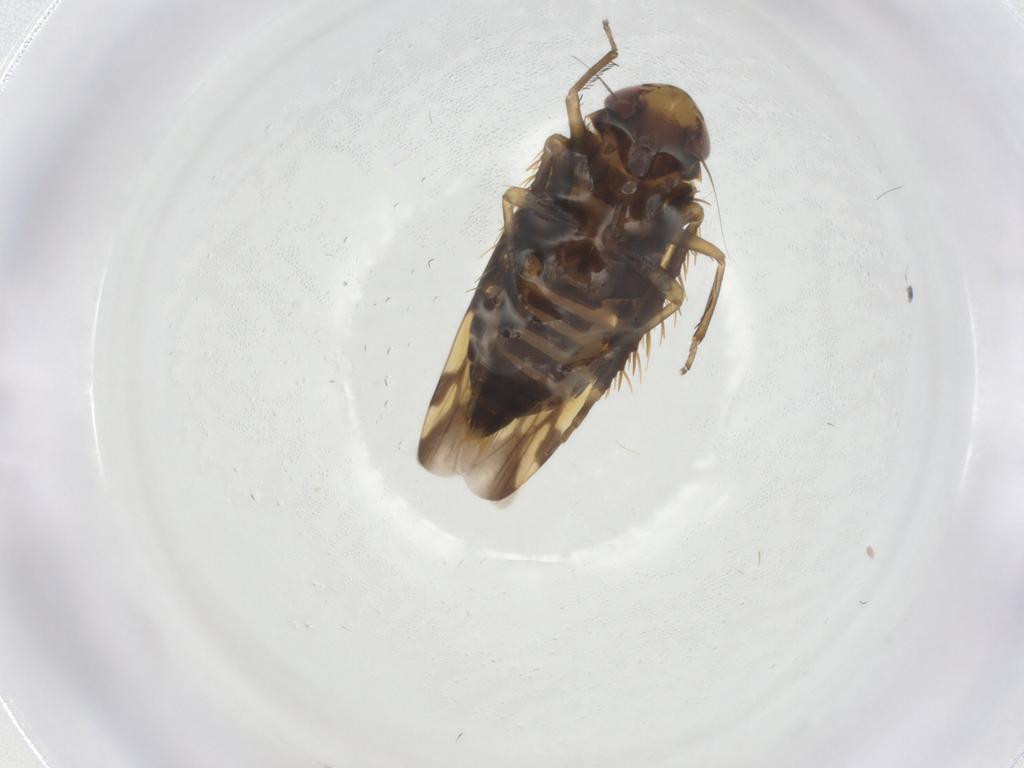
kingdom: Animalia
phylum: Arthropoda
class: Insecta
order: Hemiptera
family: Cicadellidae
